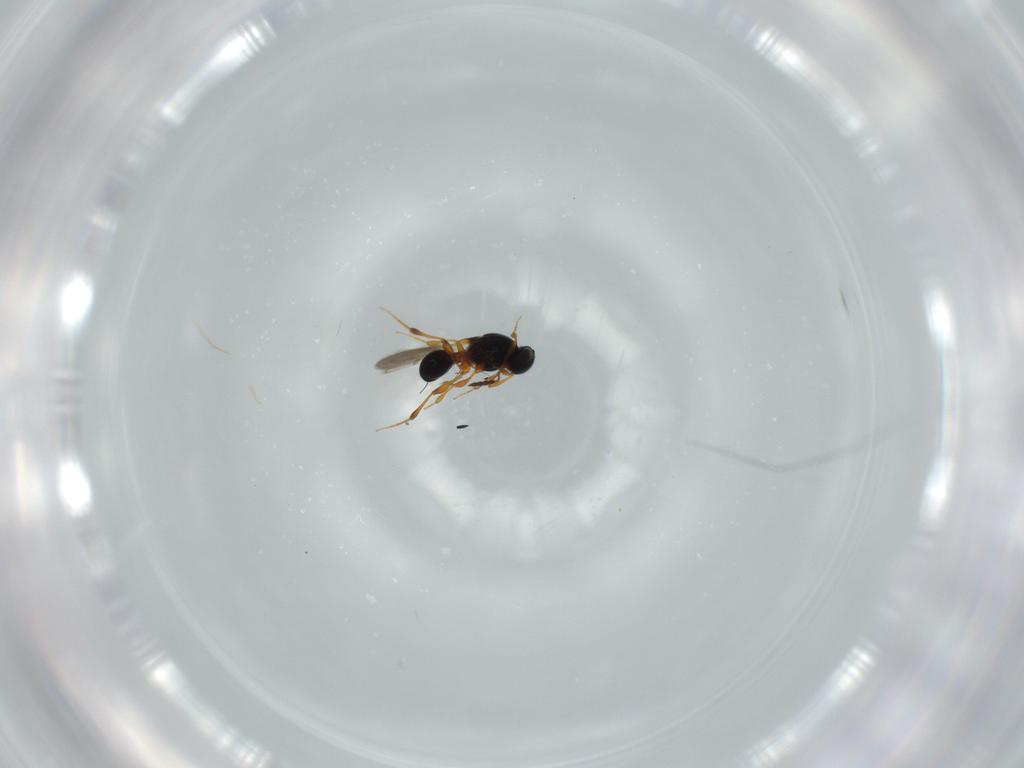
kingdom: Animalia
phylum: Arthropoda
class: Insecta
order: Hymenoptera
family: Platygastridae
